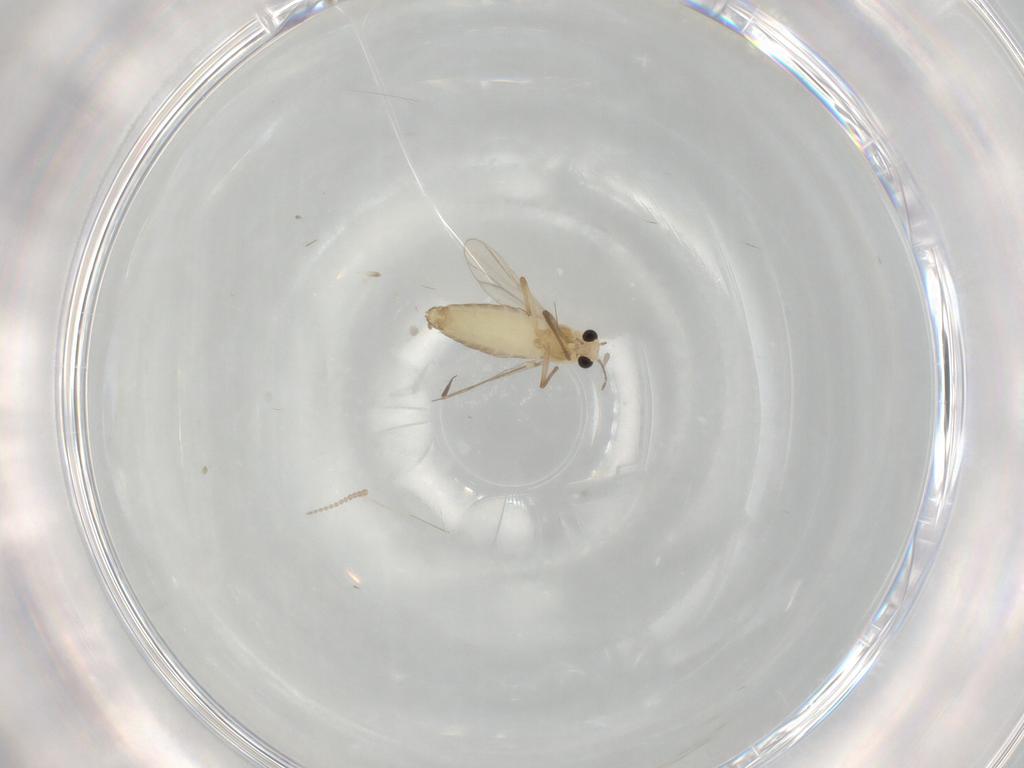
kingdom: Animalia
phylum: Arthropoda
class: Insecta
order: Diptera
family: Chironomidae
